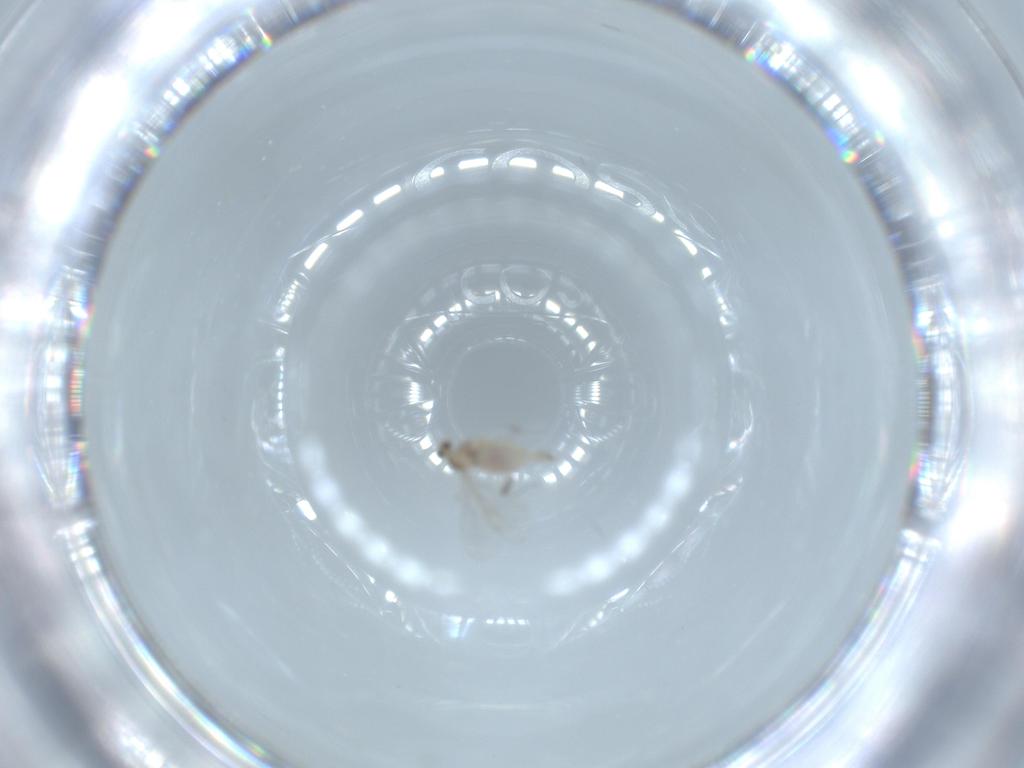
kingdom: Animalia
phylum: Arthropoda
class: Insecta
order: Diptera
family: Cecidomyiidae
